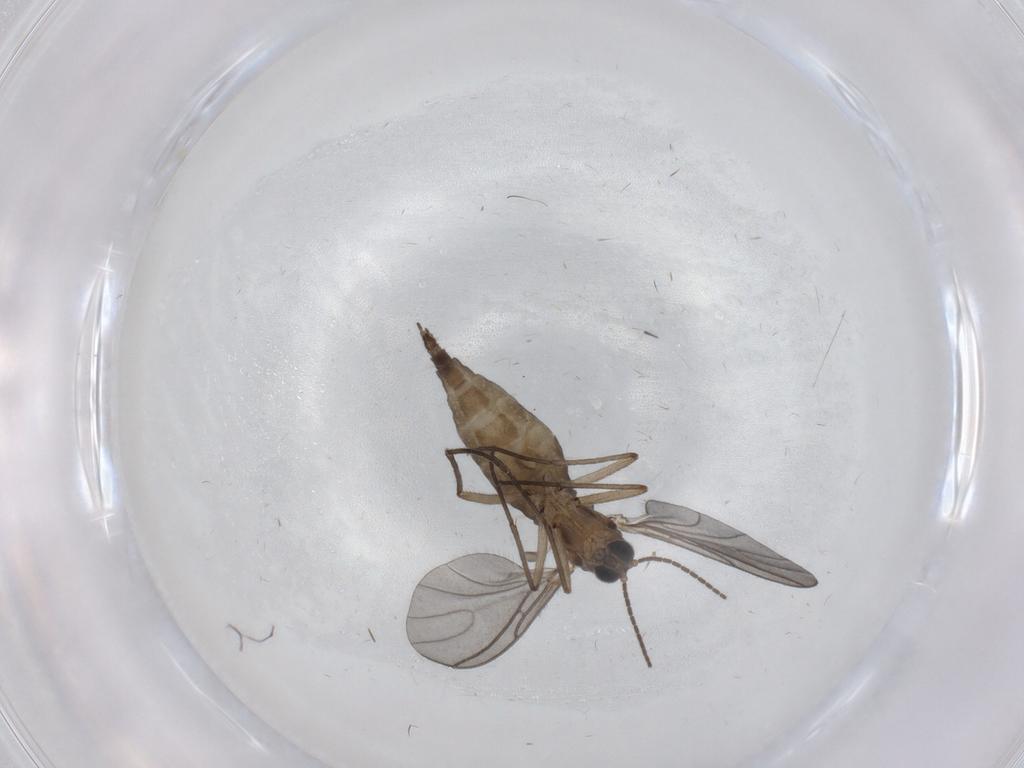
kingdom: Animalia
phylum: Arthropoda
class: Insecta
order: Diptera
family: Psychodidae
